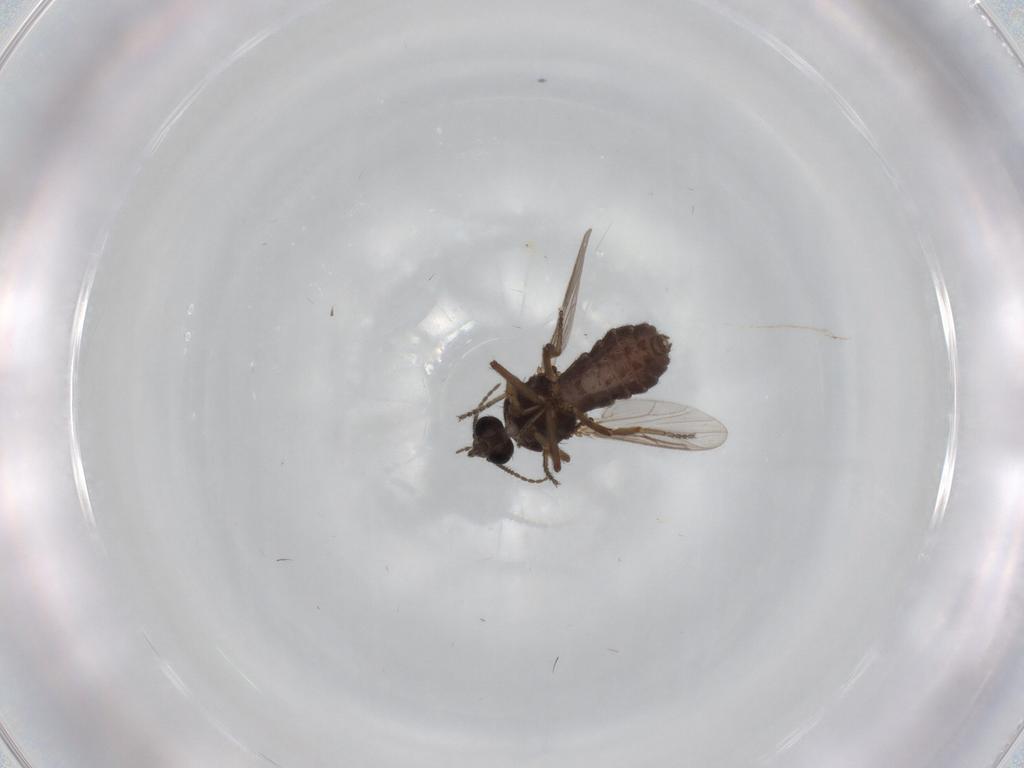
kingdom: Animalia
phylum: Arthropoda
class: Insecta
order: Diptera
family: Ceratopogonidae
